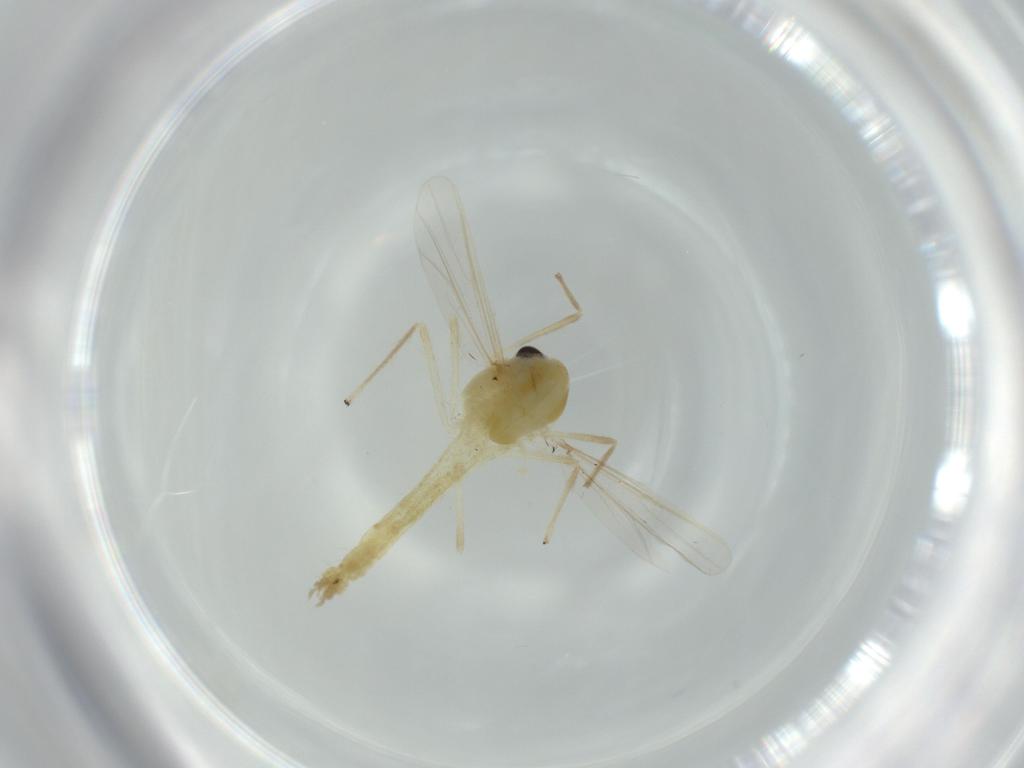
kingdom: Animalia
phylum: Arthropoda
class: Insecta
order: Diptera
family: Chironomidae
